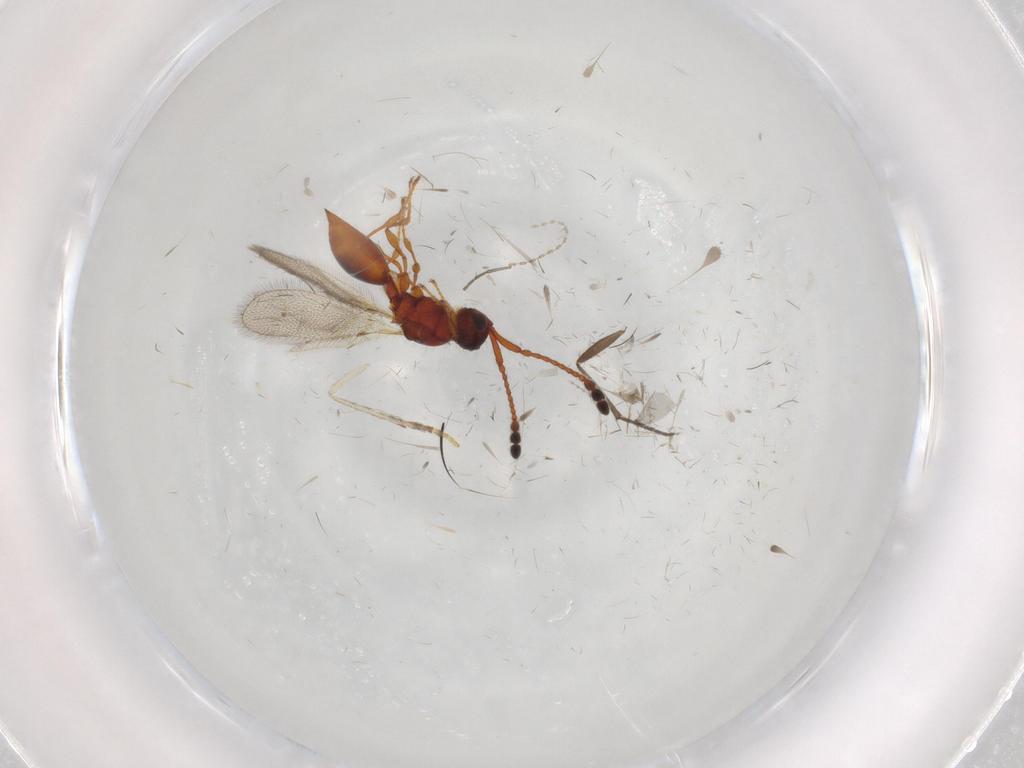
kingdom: Animalia
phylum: Arthropoda
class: Insecta
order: Hymenoptera
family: Diapriidae
